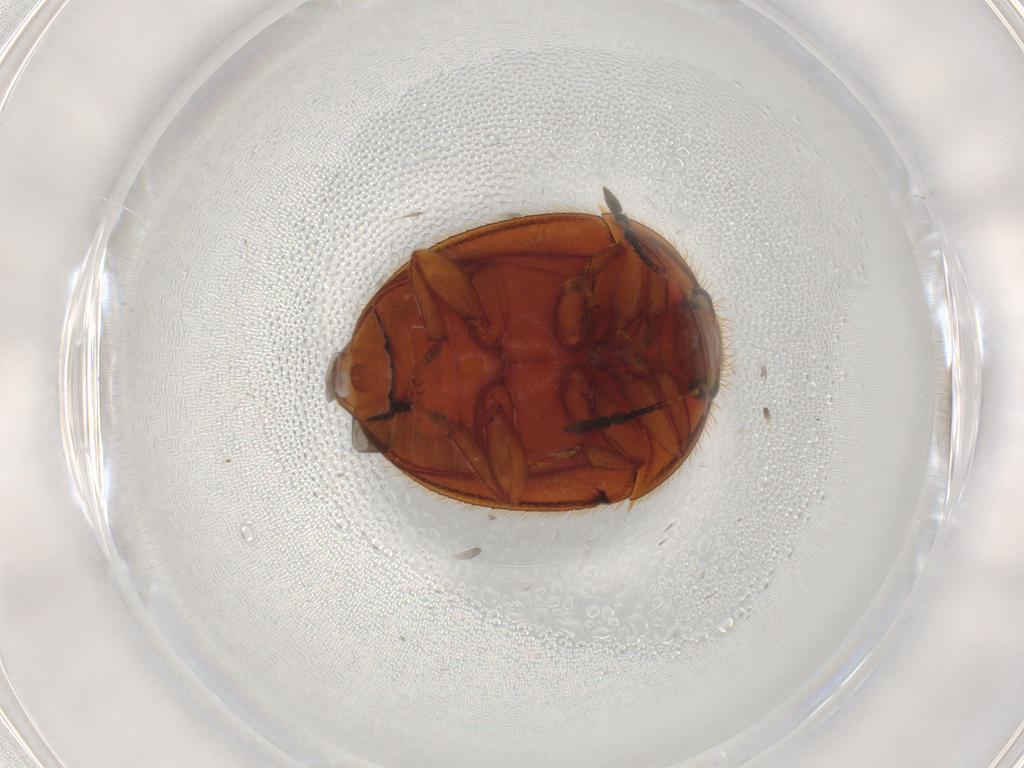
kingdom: Animalia
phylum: Arthropoda
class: Insecta
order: Coleoptera
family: Nitidulidae
